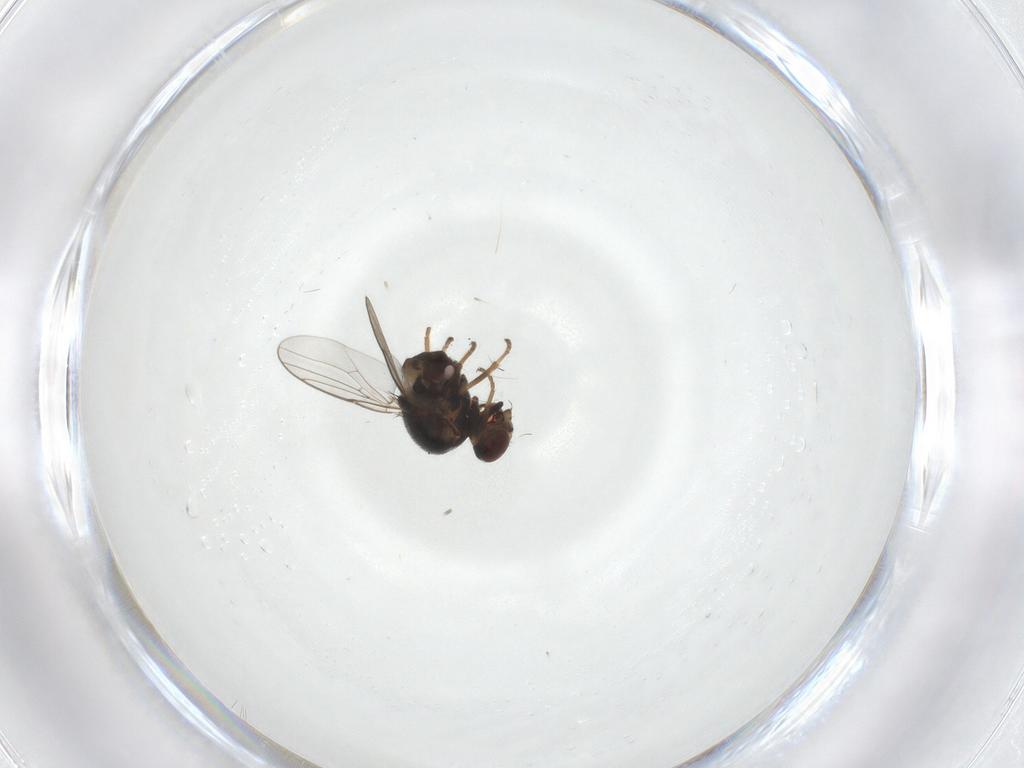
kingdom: Animalia
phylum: Arthropoda
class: Insecta
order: Diptera
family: Chloropidae
